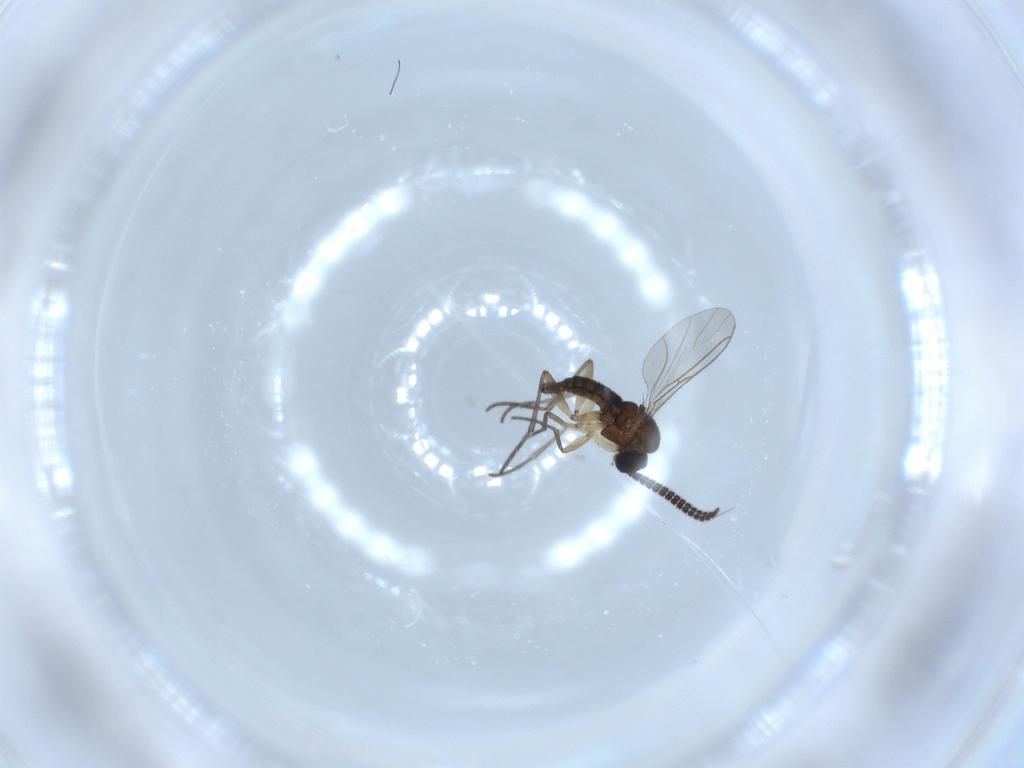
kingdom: Animalia
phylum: Arthropoda
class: Insecta
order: Diptera
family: Sciaridae
